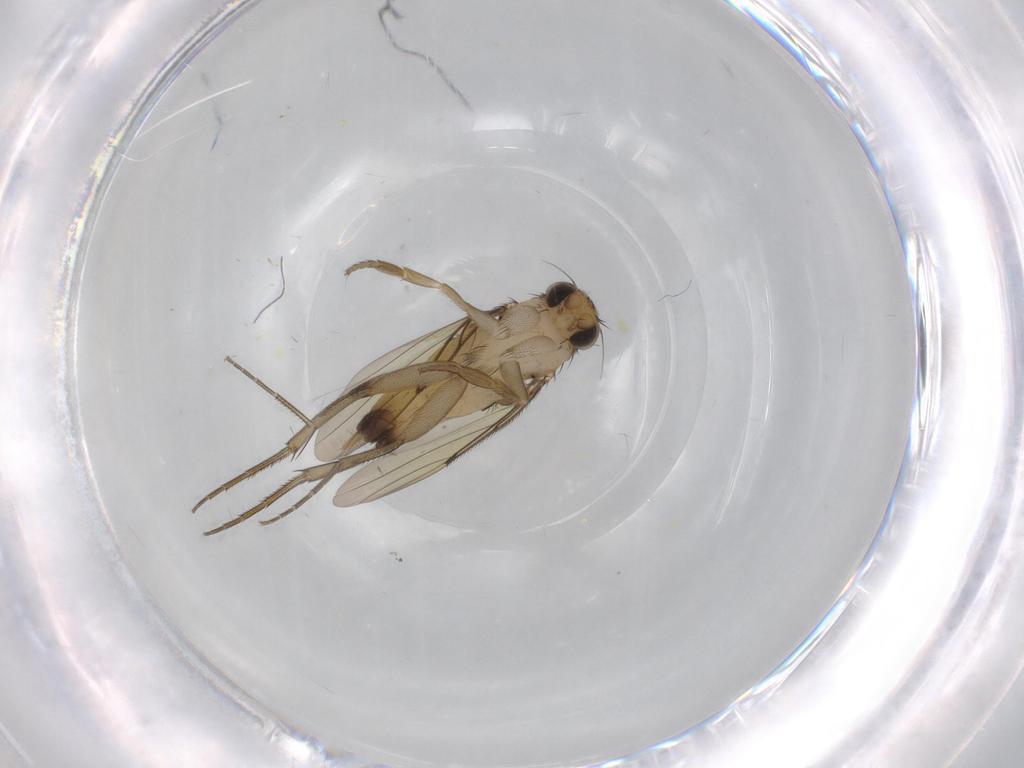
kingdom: Animalia
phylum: Arthropoda
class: Insecta
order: Diptera
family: Phoridae
